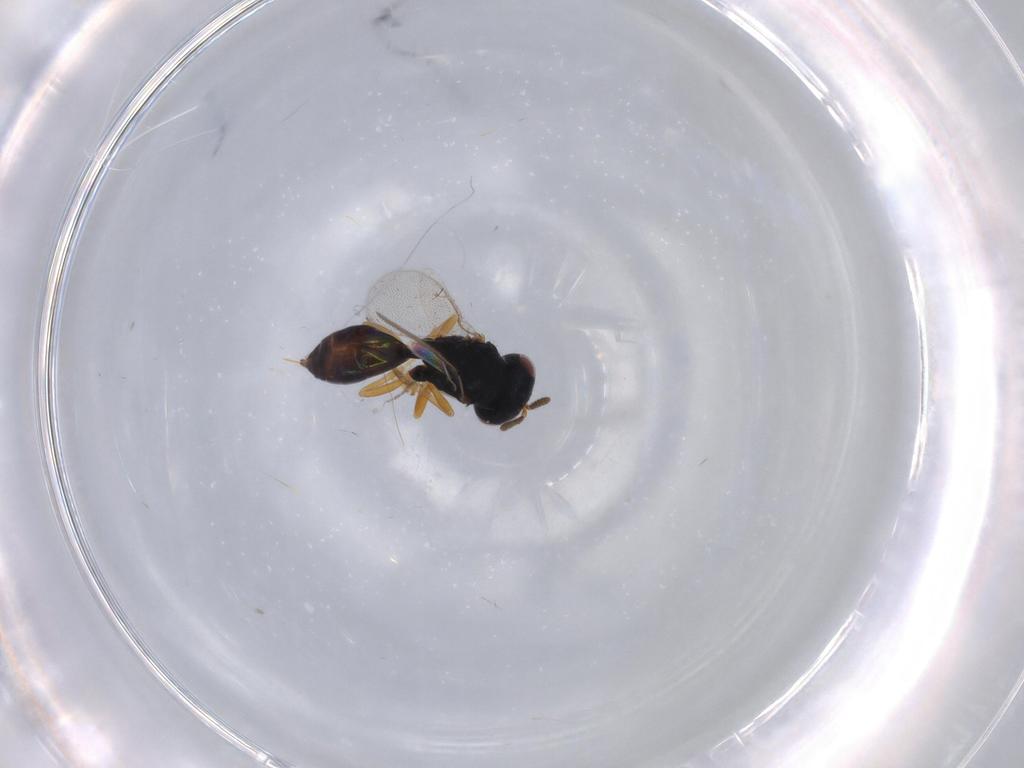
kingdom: Animalia
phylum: Arthropoda
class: Insecta
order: Hymenoptera
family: Pteromalidae
